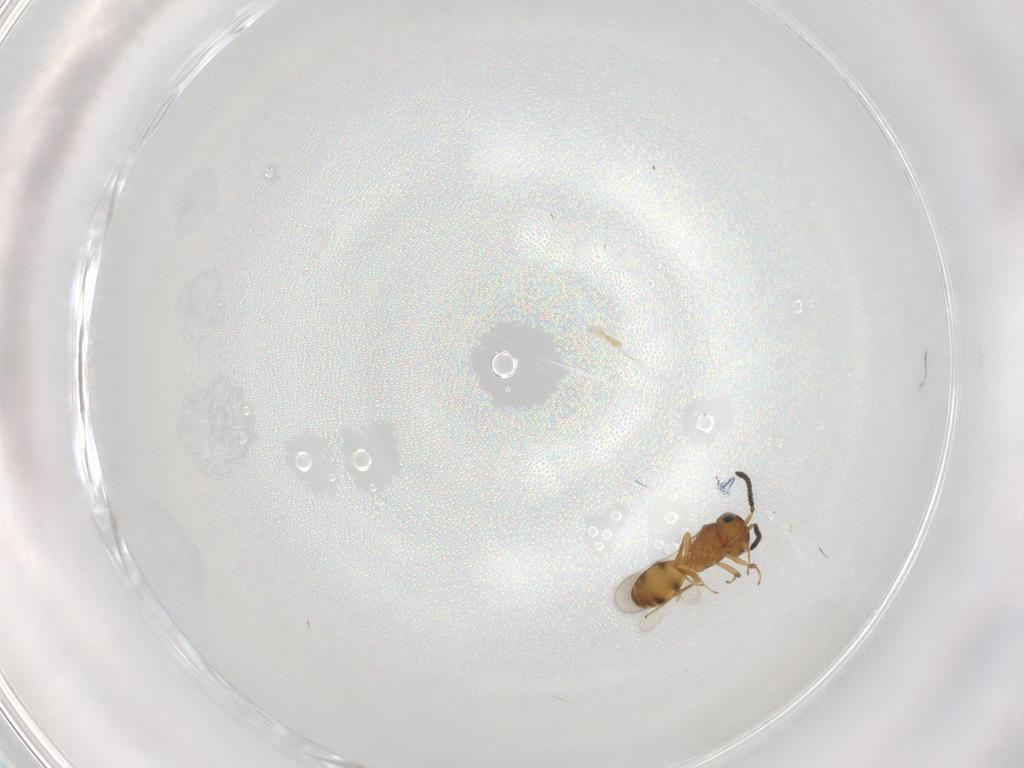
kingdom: Animalia
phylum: Arthropoda
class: Insecta
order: Hymenoptera
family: Scelionidae
